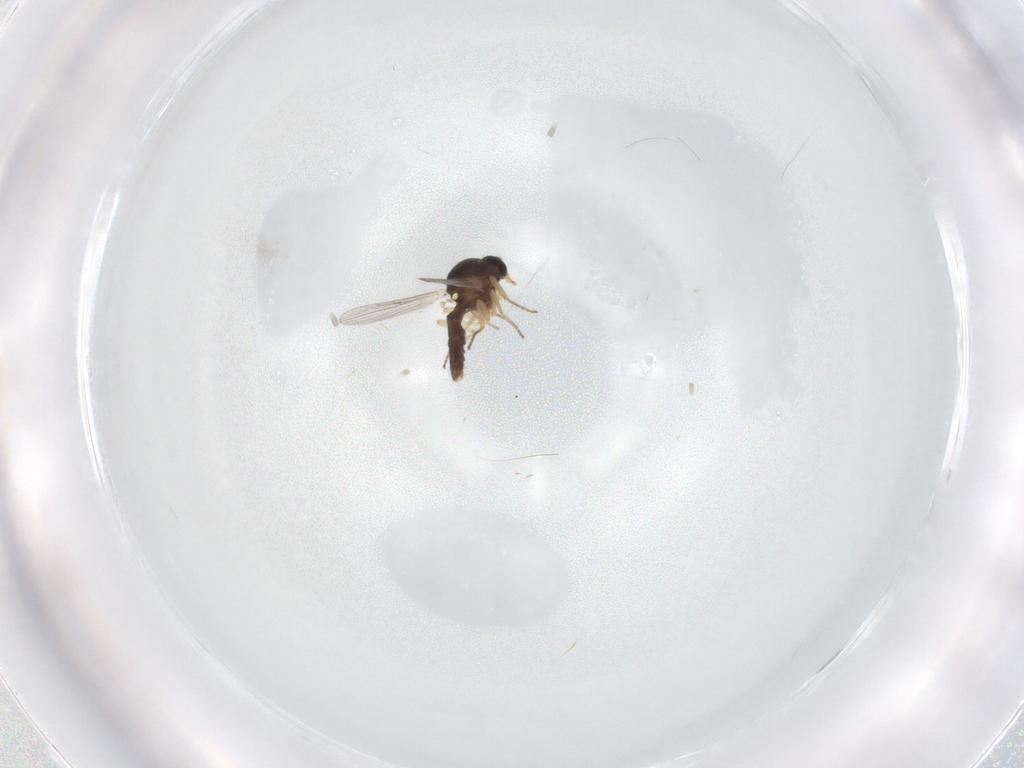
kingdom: Animalia
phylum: Arthropoda
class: Insecta
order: Diptera
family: Ceratopogonidae
